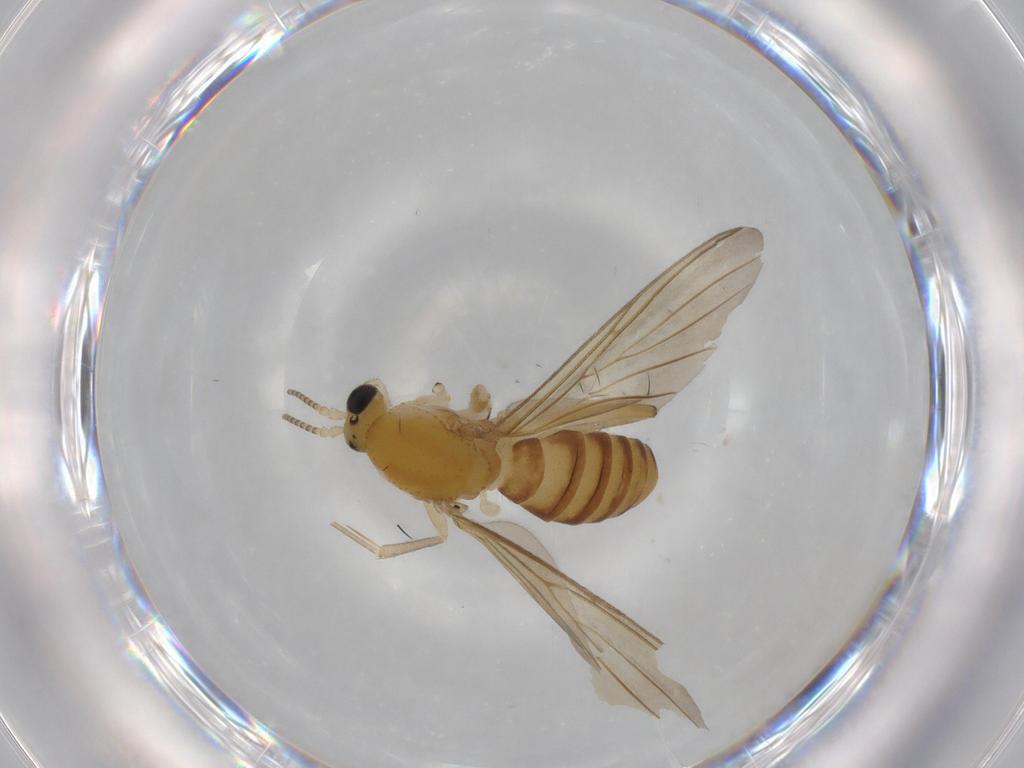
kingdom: Animalia
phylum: Arthropoda
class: Insecta
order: Diptera
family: Mycetophilidae
